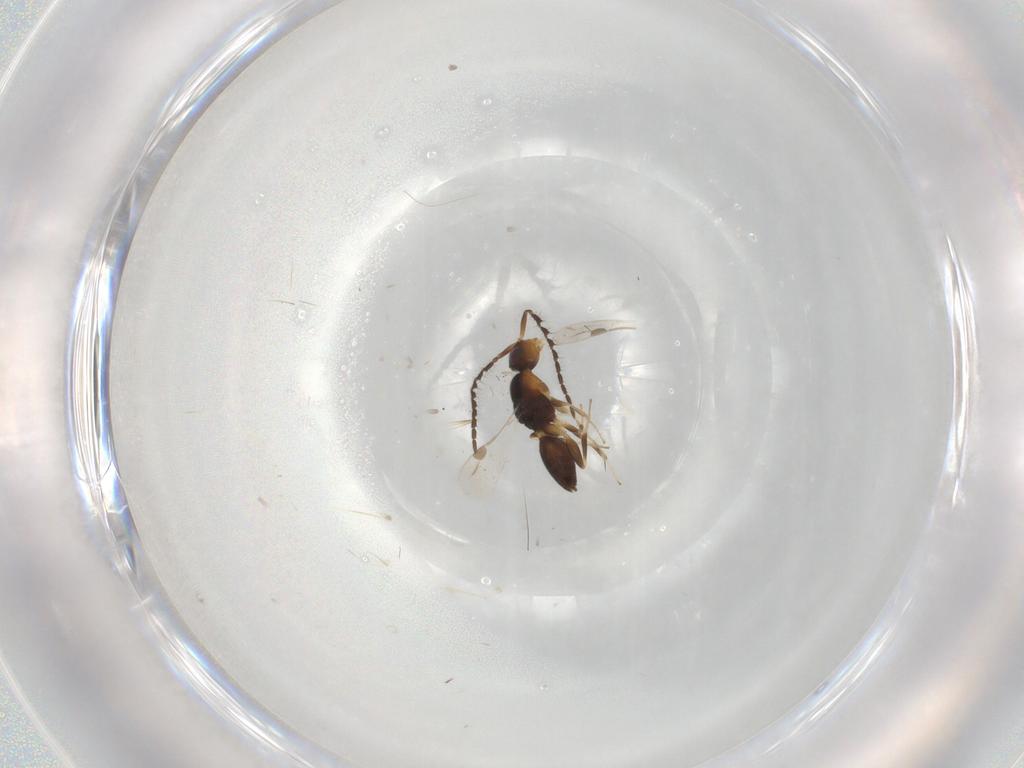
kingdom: Animalia
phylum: Arthropoda
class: Insecta
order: Hymenoptera
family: Braconidae
